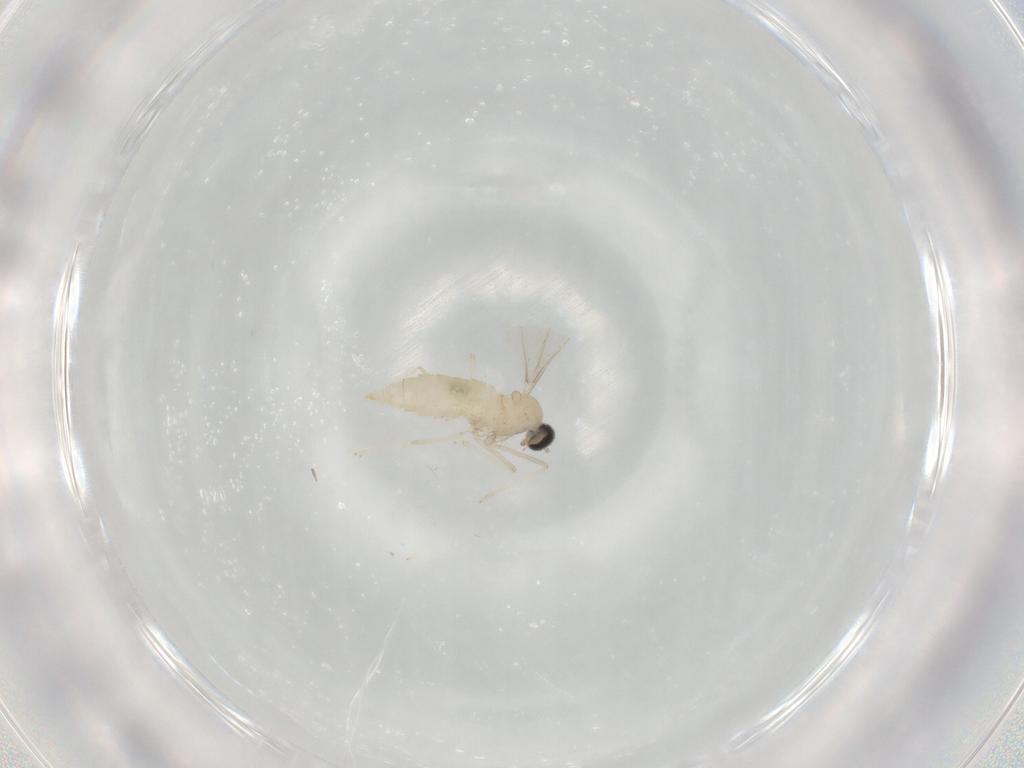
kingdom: Animalia
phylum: Arthropoda
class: Insecta
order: Diptera
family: Cecidomyiidae
